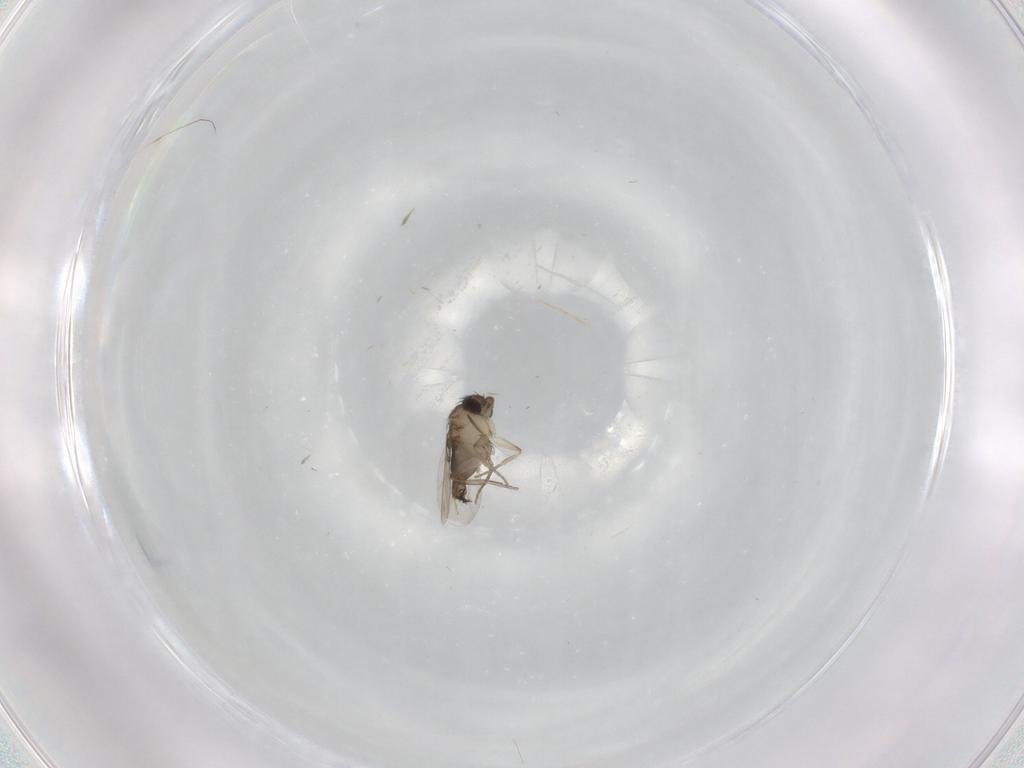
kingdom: Animalia
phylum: Arthropoda
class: Insecta
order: Diptera
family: Phoridae
